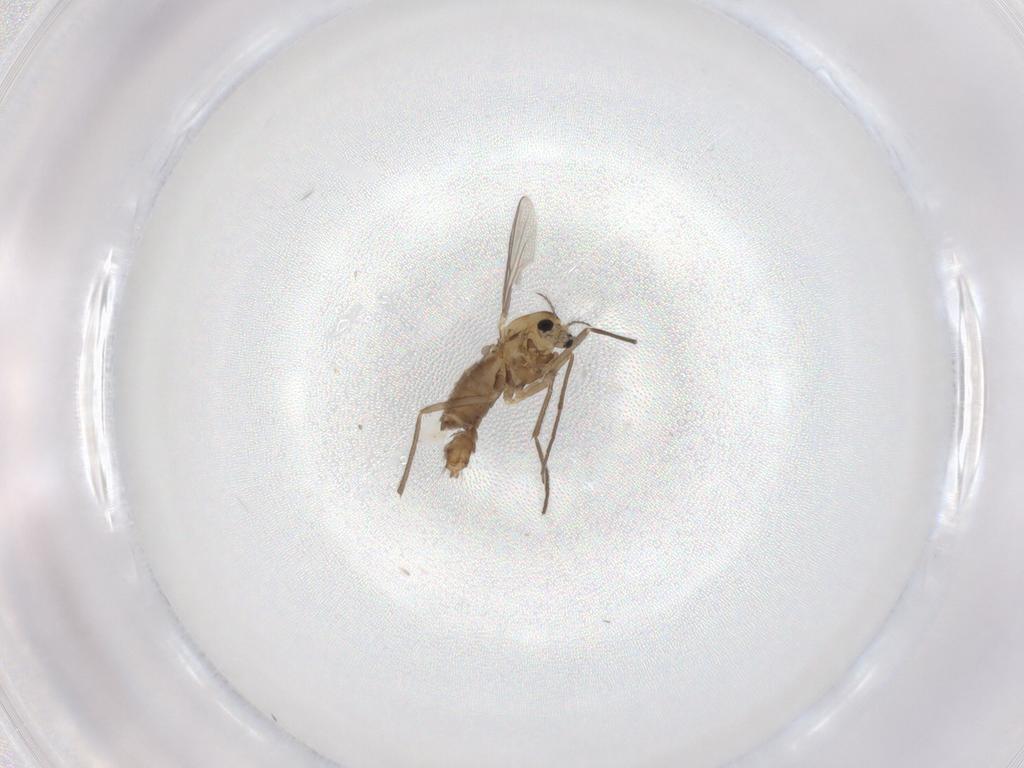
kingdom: Animalia
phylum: Arthropoda
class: Insecta
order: Diptera
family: Chironomidae
